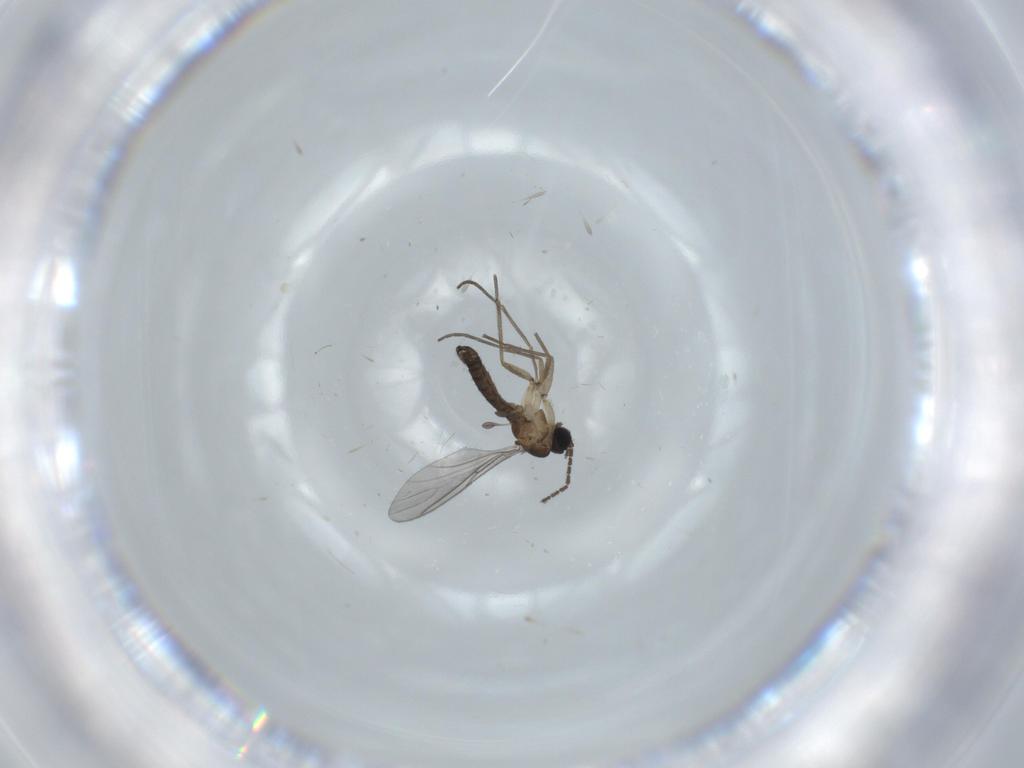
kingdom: Animalia
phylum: Arthropoda
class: Insecta
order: Diptera
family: Sciaridae
